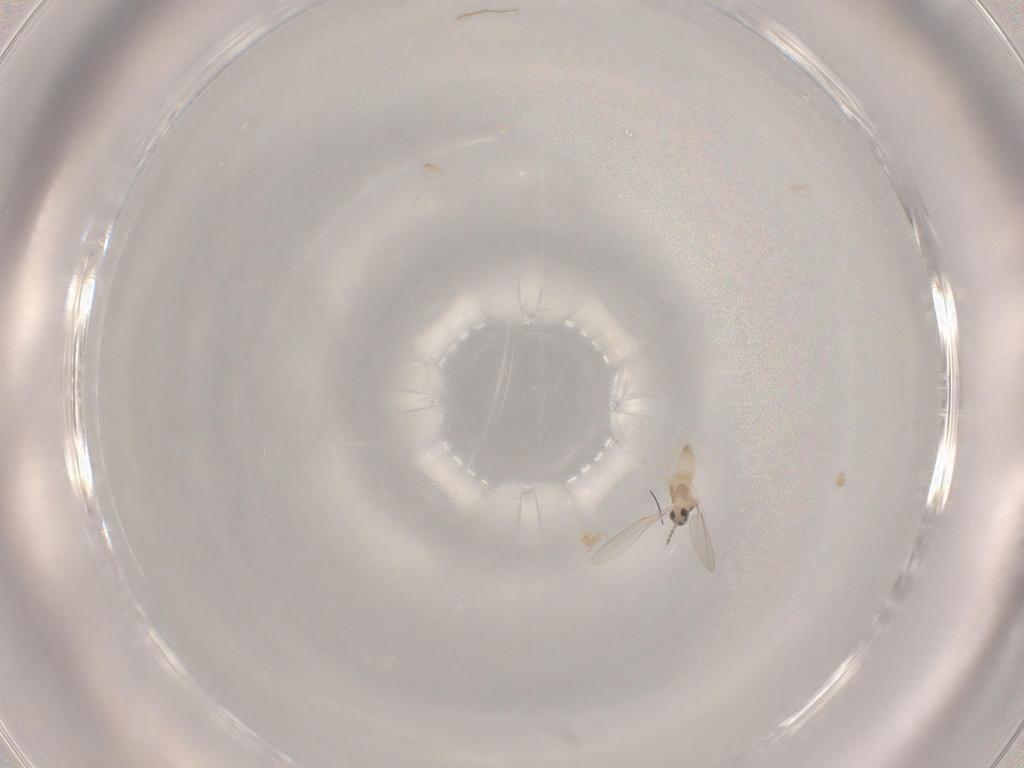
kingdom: Animalia
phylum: Arthropoda
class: Insecta
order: Diptera
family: Cecidomyiidae
